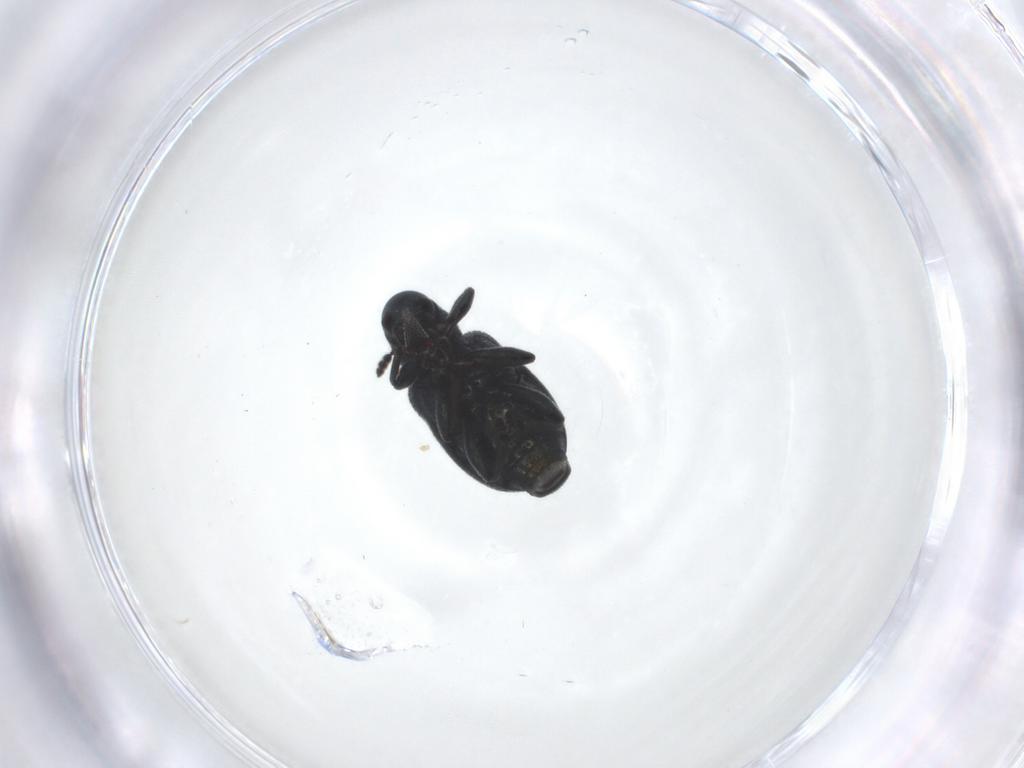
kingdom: Animalia
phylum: Arthropoda
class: Insecta
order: Coleoptera
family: Attelabidae
